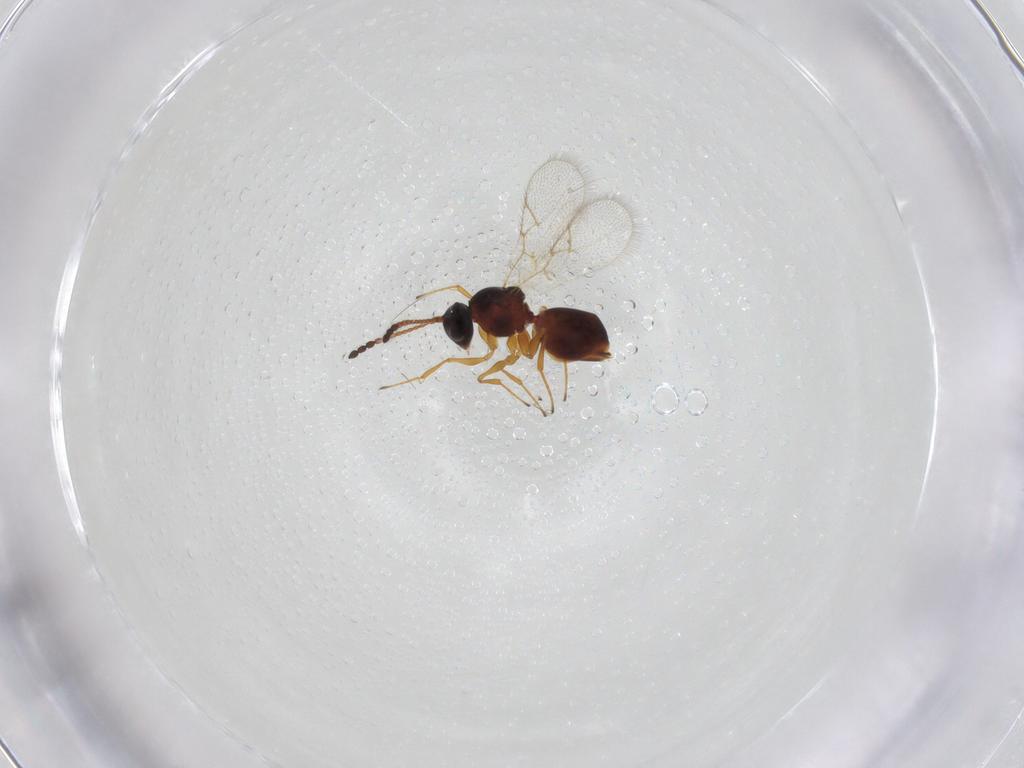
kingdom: Animalia
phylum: Arthropoda
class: Insecta
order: Hymenoptera
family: Figitidae
